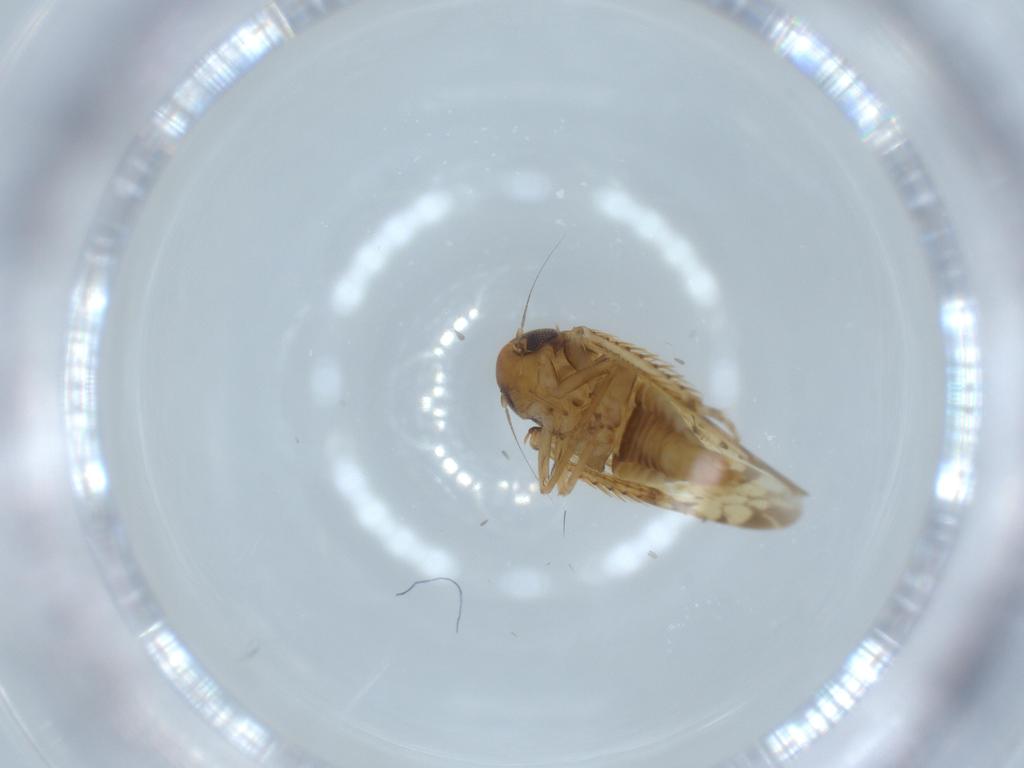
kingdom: Animalia
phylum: Arthropoda
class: Insecta
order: Hemiptera
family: Cicadellidae
